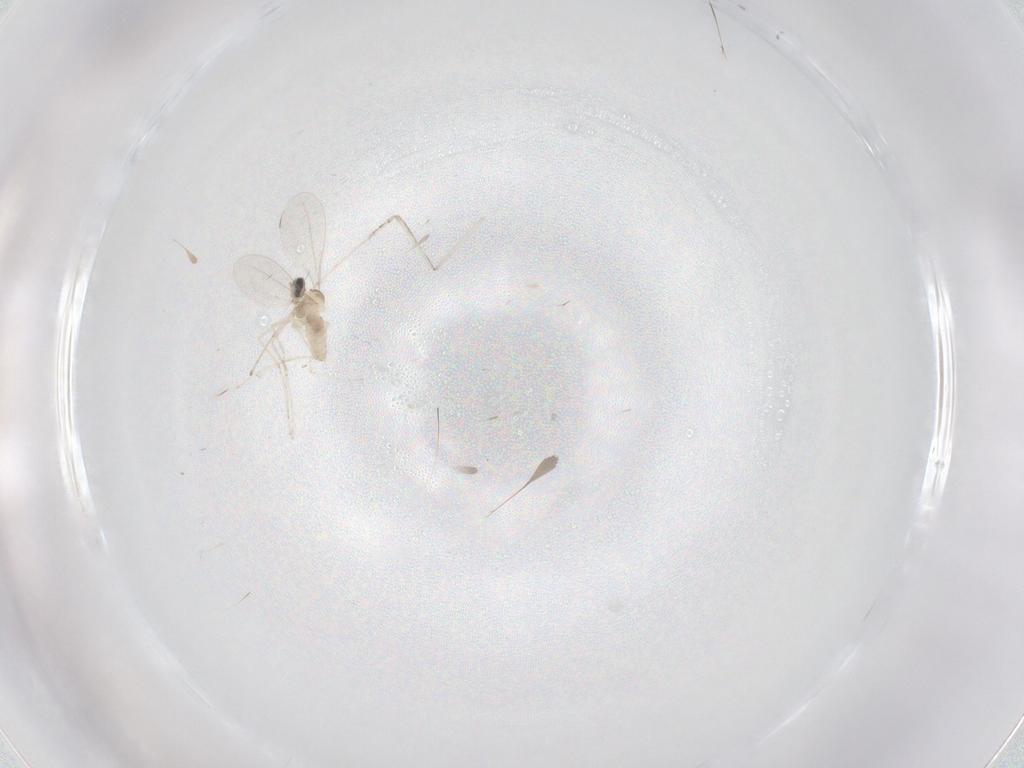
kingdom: Animalia
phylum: Arthropoda
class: Insecta
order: Diptera
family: Cecidomyiidae
